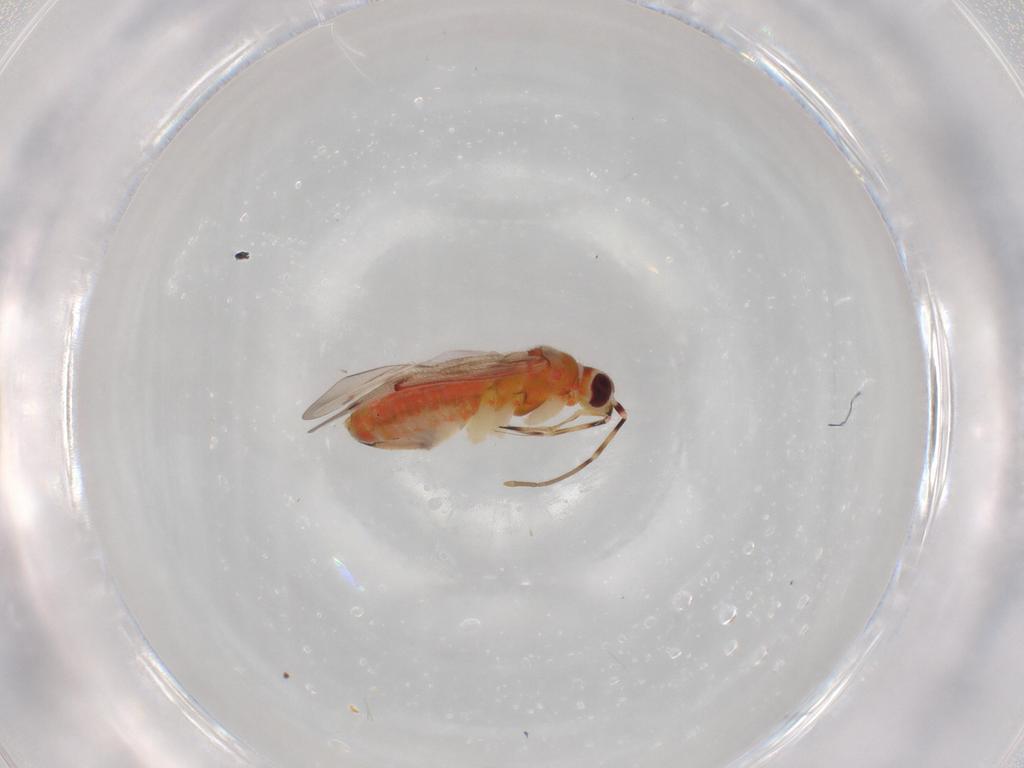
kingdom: Animalia
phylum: Arthropoda
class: Insecta
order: Hemiptera
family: Miridae
